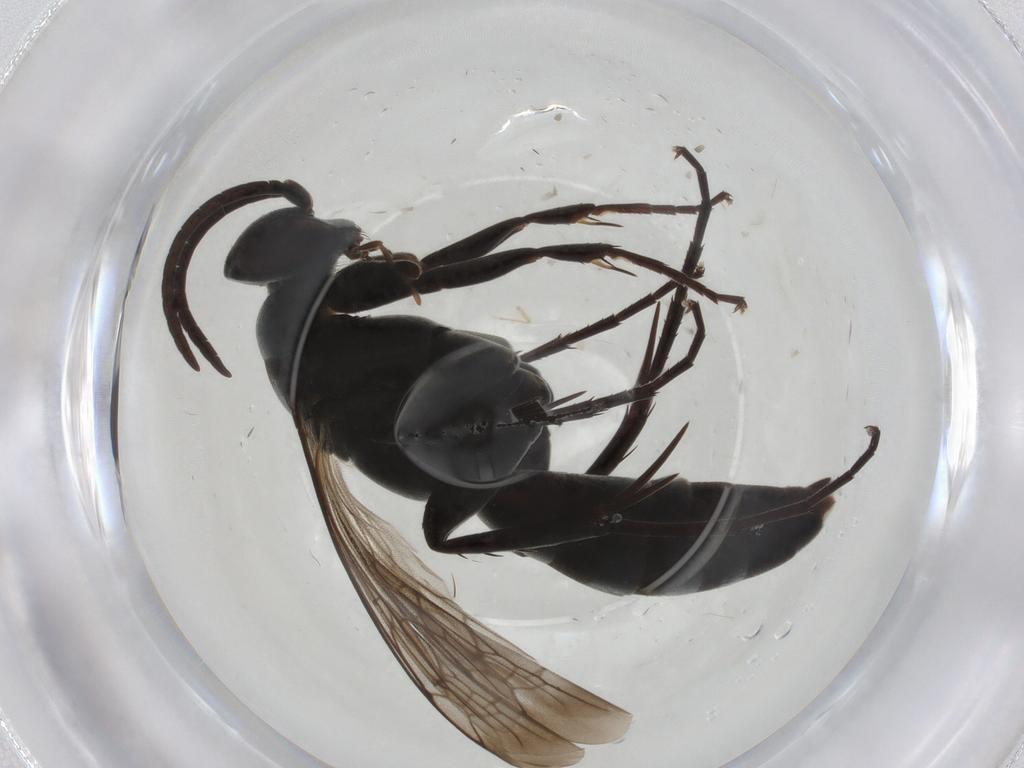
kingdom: Animalia
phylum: Arthropoda
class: Insecta
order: Hymenoptera
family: Pompilidae
